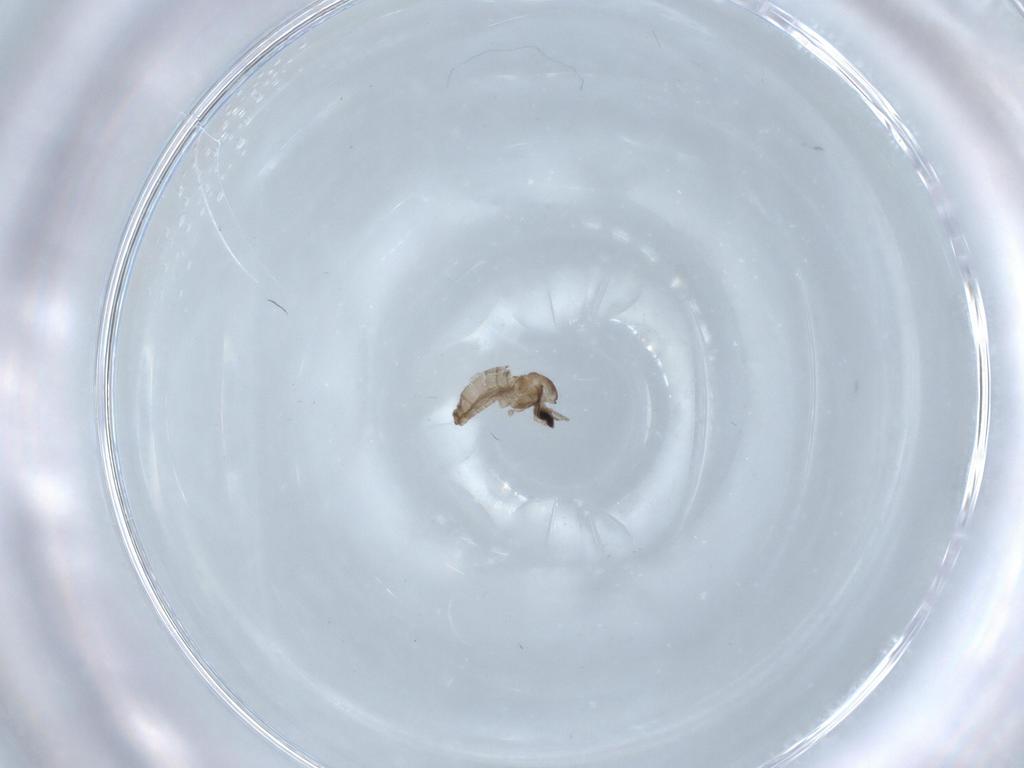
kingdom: Animalia
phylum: Arthropoda
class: Insecta
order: Diptera
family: Cecidomyiidae
